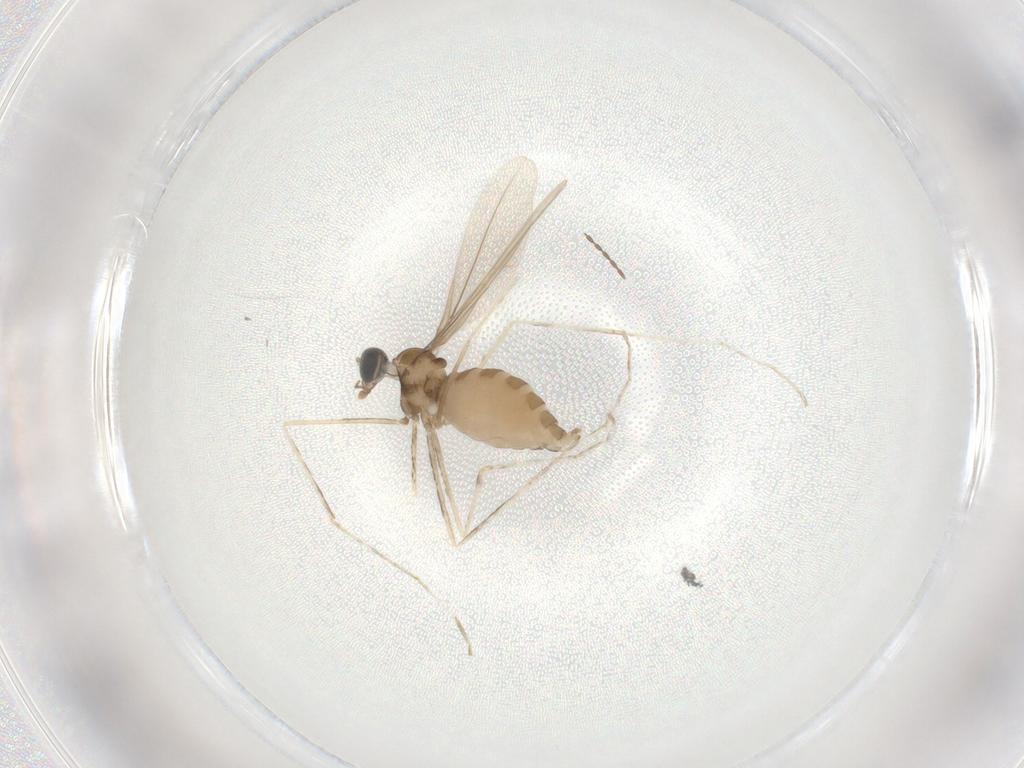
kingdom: Animalia
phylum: Arthropoda
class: Insecta
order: Diptera
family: Cecidomyiidae
